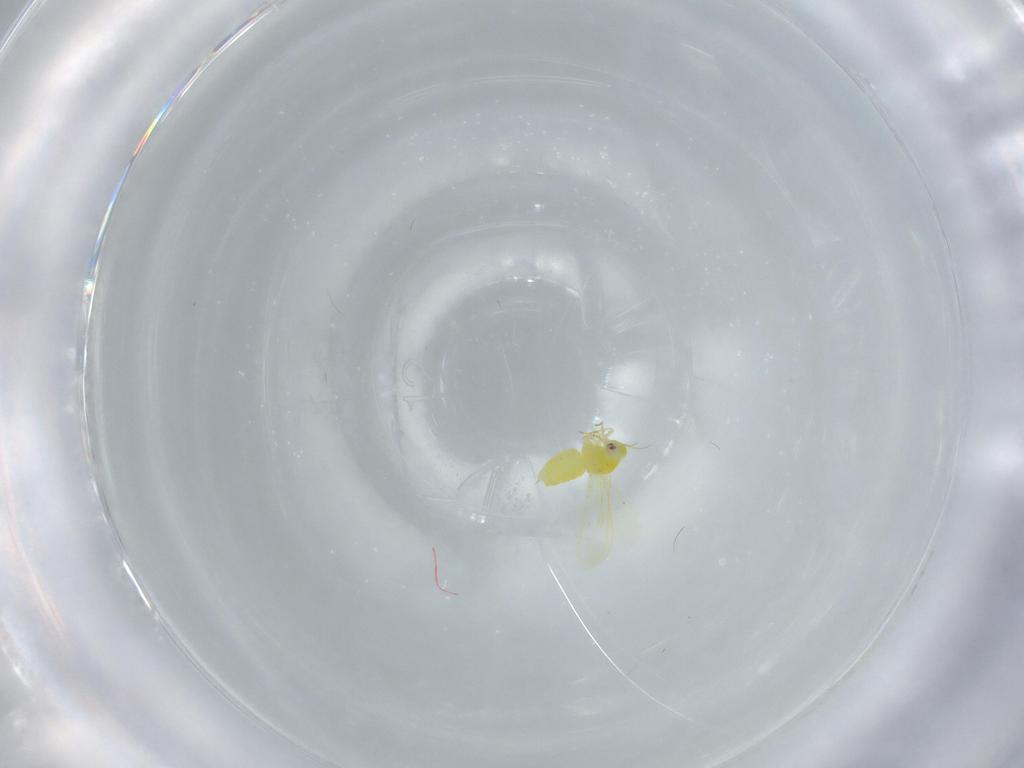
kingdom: Animalia
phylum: Arthropoda
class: Insecta
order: Hemiptera
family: Aleyrodidae
